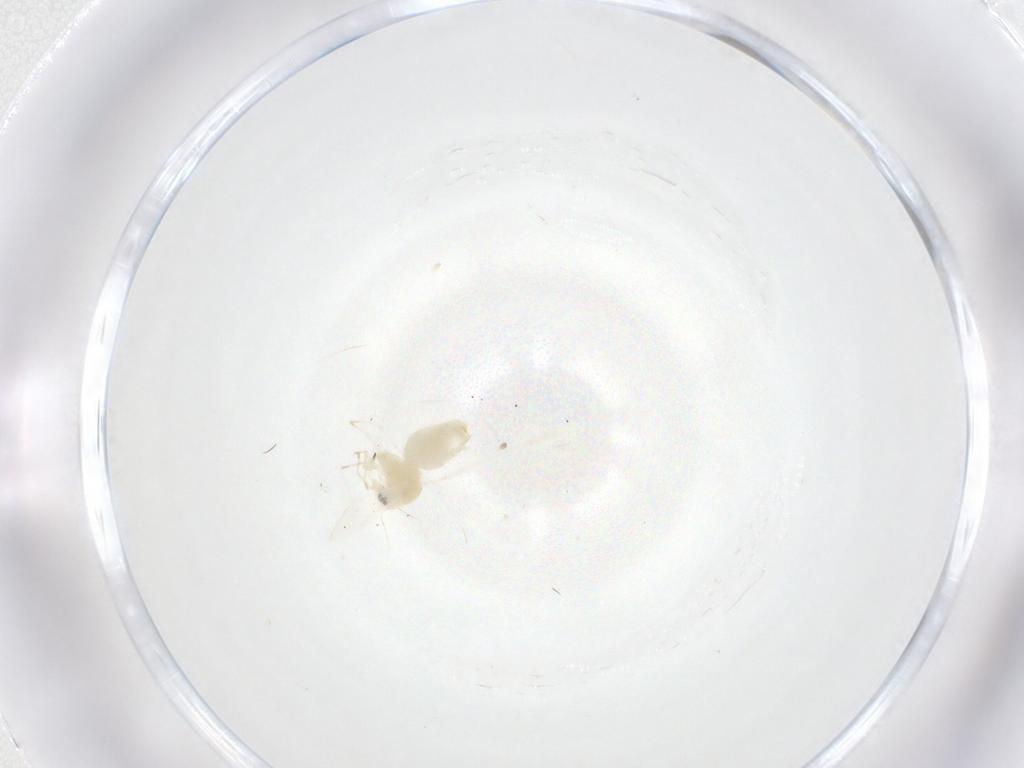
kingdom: Animalia
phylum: Arthropoda
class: Insecta
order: Hemiptera
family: Aleyrodidae
